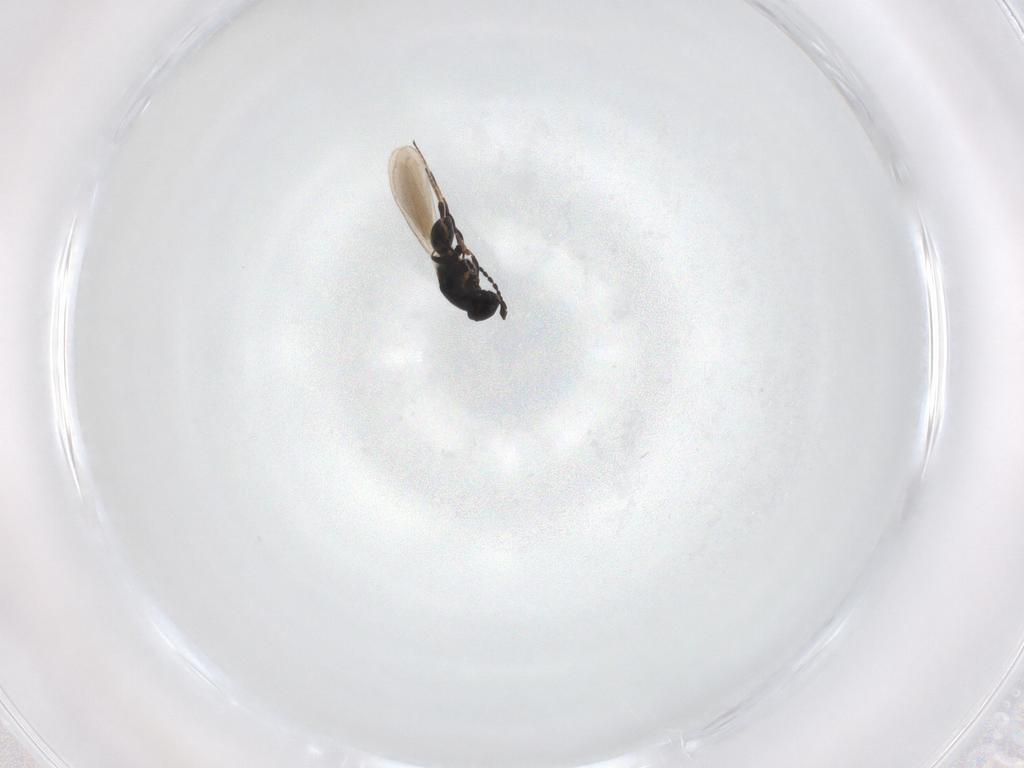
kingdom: Animalia
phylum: Arthropoda
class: Insecta
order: Hymenoptera
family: Platygastridae
